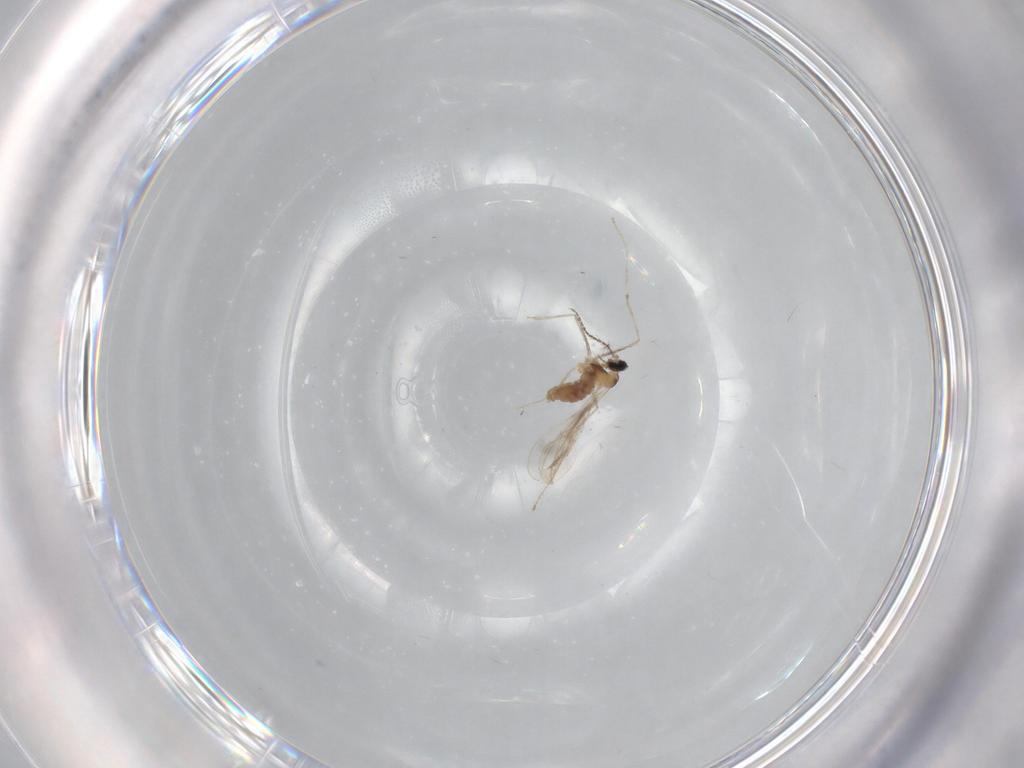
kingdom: Animalia
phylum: Arthropoda
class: Insecta
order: Diptera
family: Cecidomyiidae
